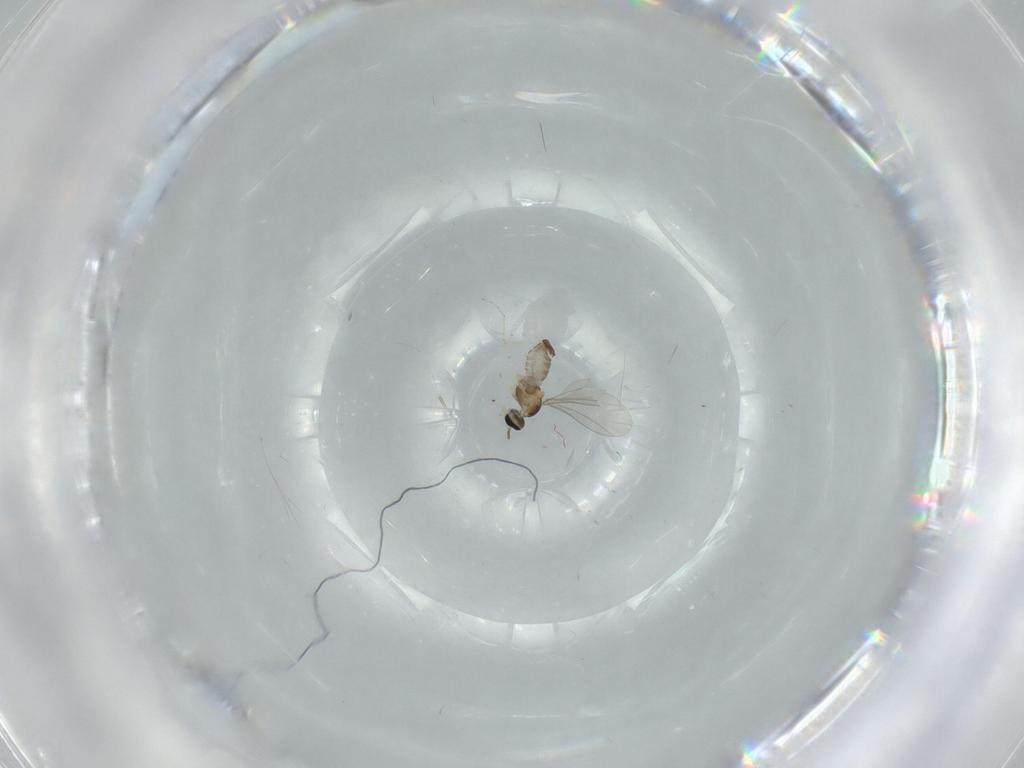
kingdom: Animalia
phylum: Arthropoda
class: Insecta
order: Diptera
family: Cecidomyiidae
